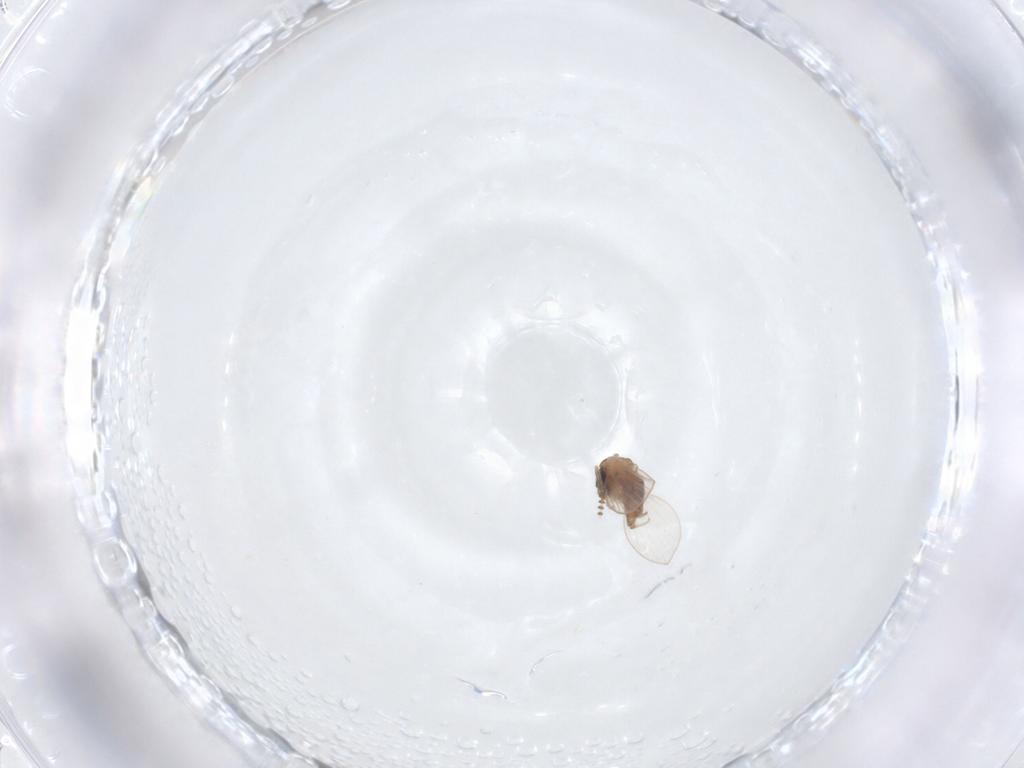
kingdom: Animalia
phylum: Arthropoda
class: Insecta
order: Diptera
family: Psychodidae
